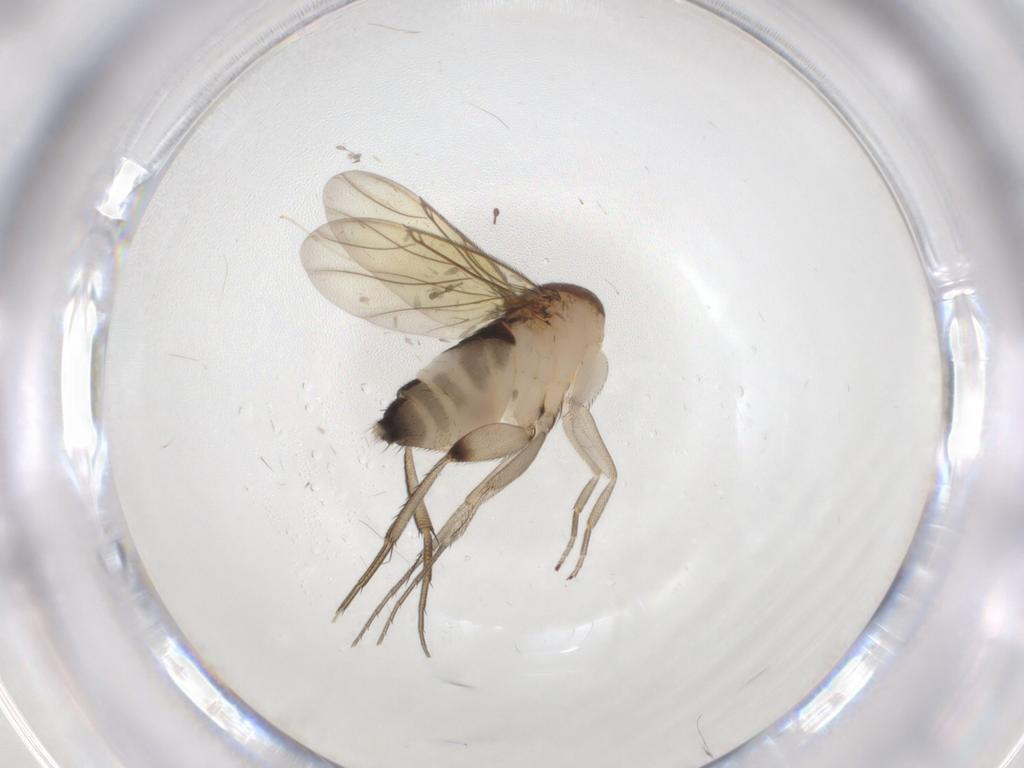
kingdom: Animalia
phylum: Arthropoda
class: Insecta
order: Diptera
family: Phoridae
